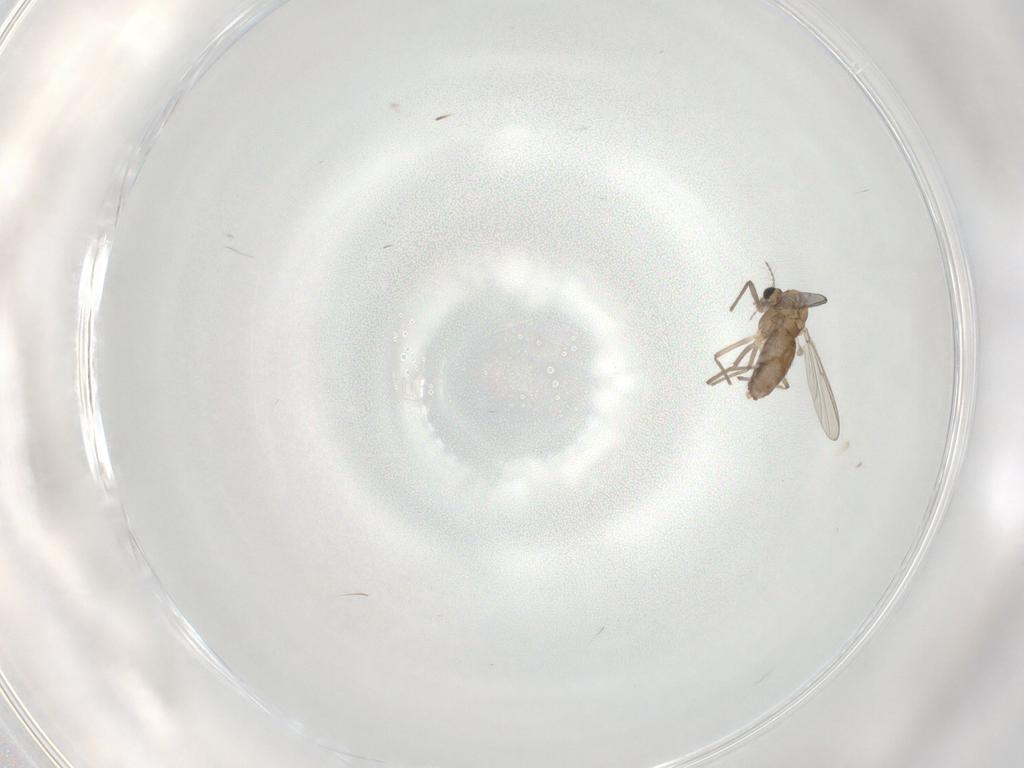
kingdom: Animalia
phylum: Arthropoda
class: Insecta
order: Diptera
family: Chironomidae
